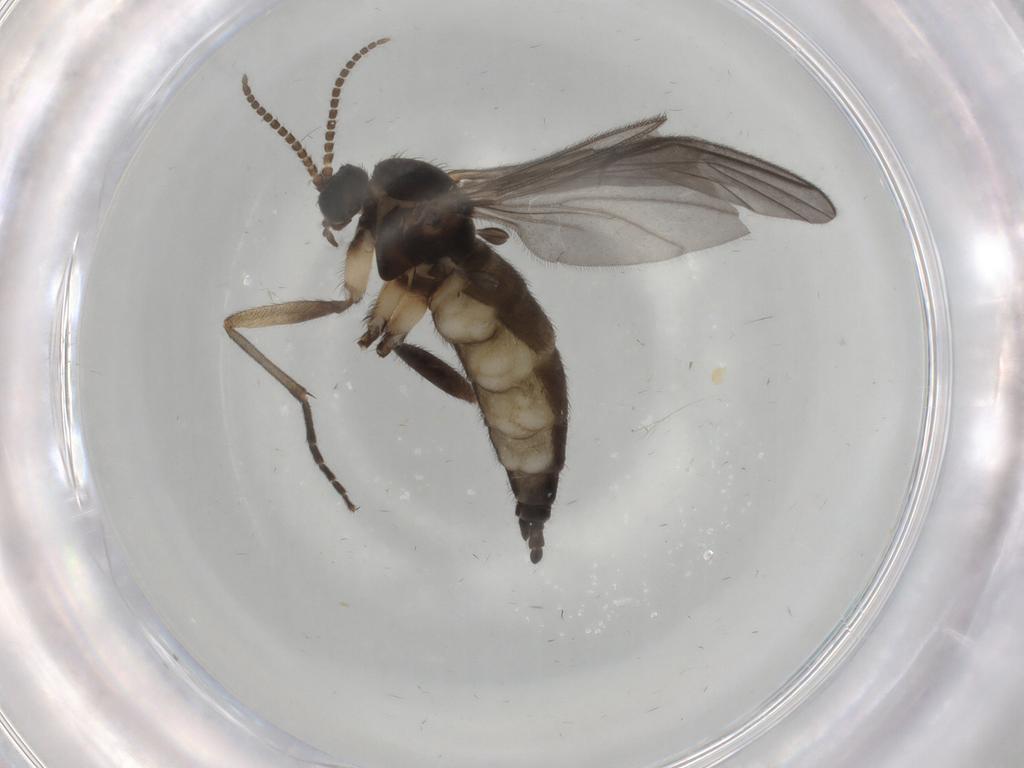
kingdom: Animalia
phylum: Arthropoda
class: Insecta
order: Diptera
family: Sciaridae
